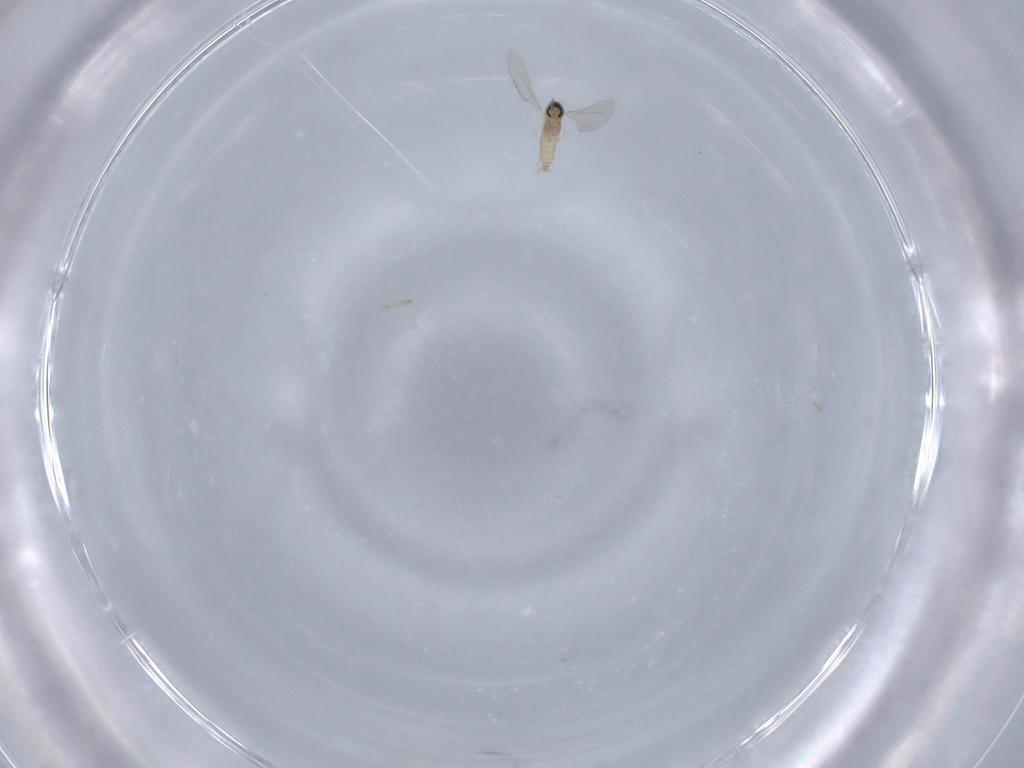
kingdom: Animalia
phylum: Arthropoda
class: Insecta
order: Diptera
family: Cecidomyiidae
